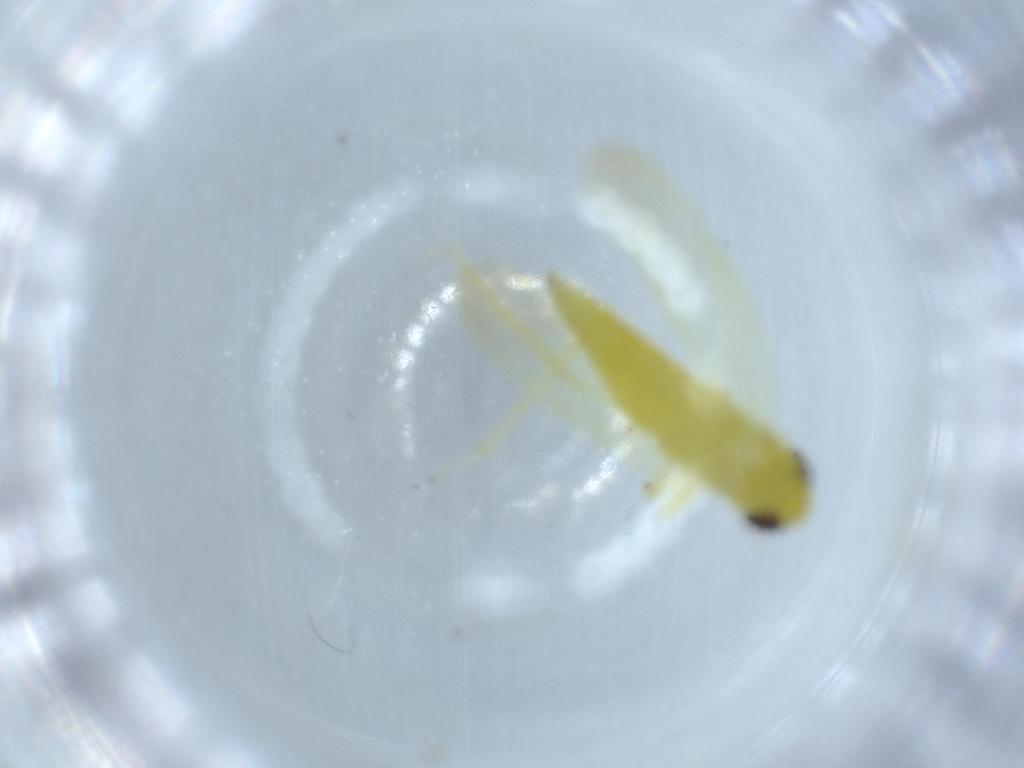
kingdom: Animalia
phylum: Arthropoda
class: Insecta
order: Hemiptera
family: Cicadellidae
